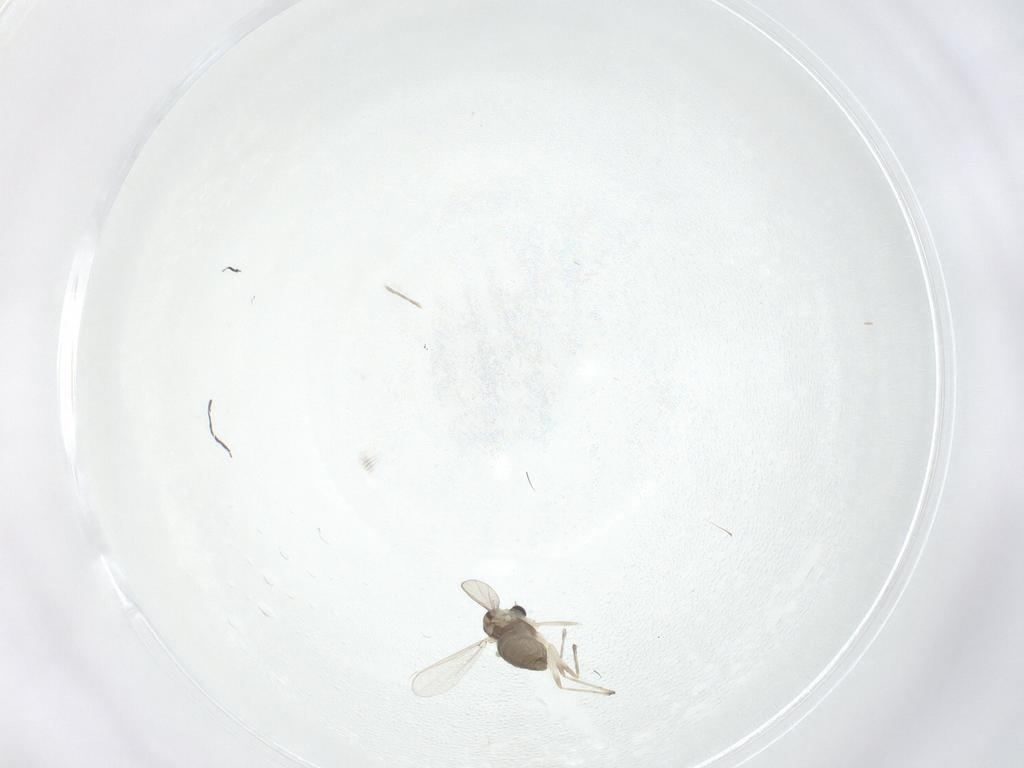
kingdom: Animalia
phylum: Arthropoda
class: Insecta
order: Diptera
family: Chironomidae
